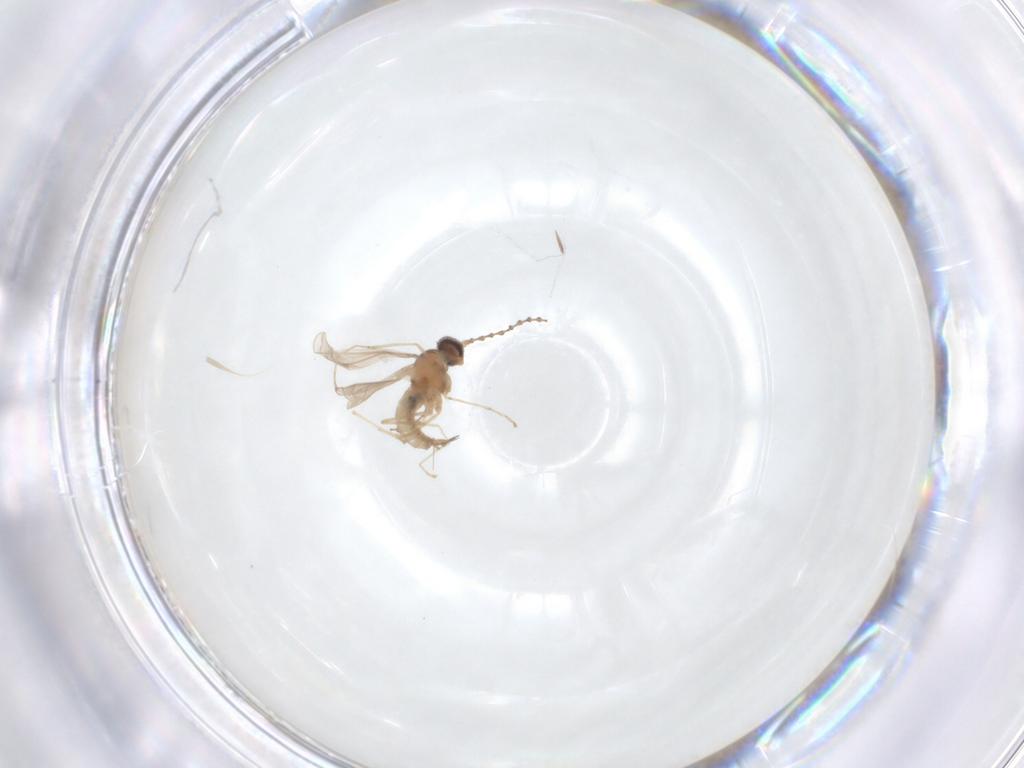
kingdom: Animalia
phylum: Arthropoda
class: Insecta
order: Diptera
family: Cecidomyiidae
